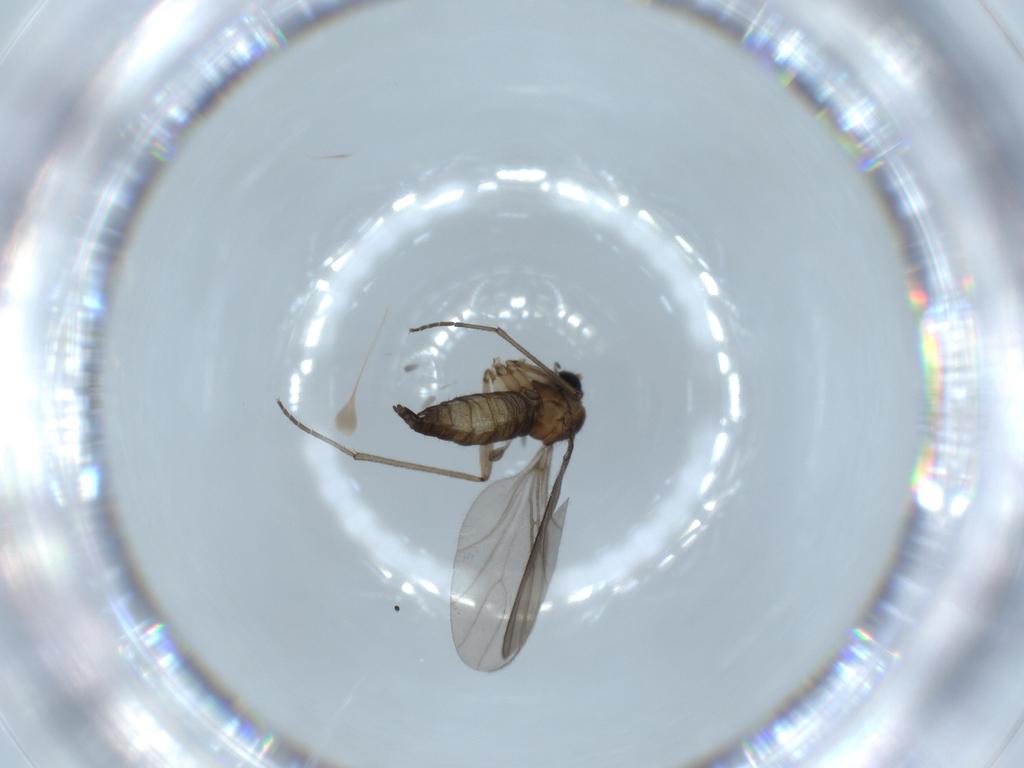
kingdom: Animalia
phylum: Arthropoda
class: Insecta
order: Diptera
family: Sciaridae
